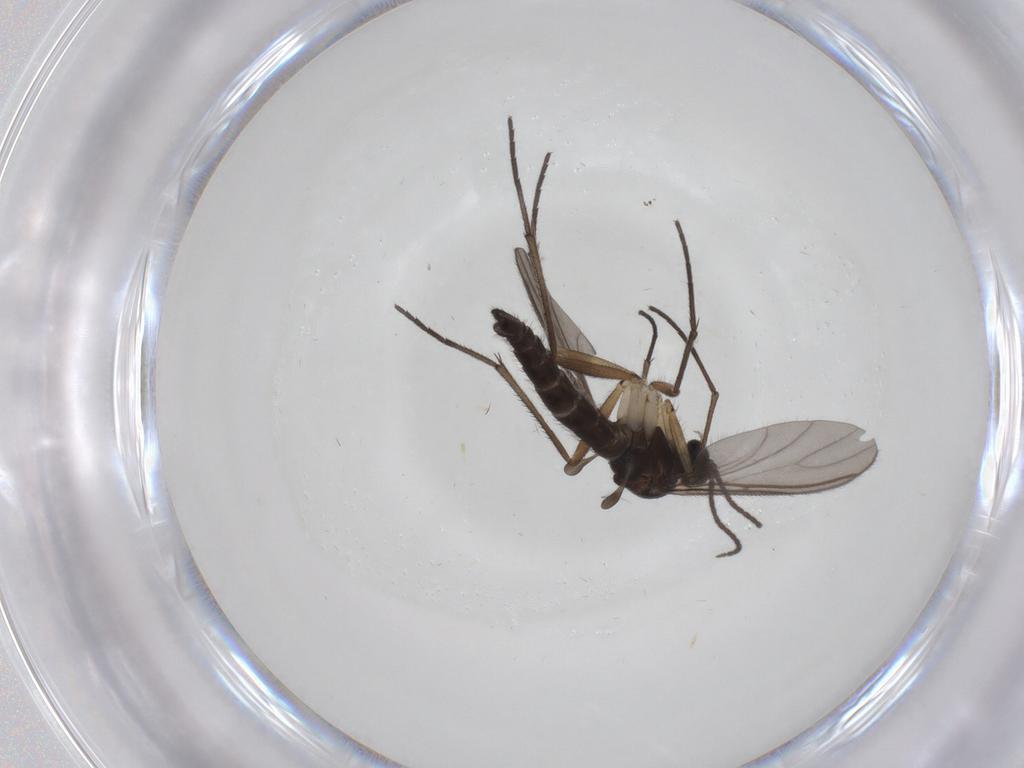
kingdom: Animalia
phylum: Arthropoda
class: Insecta
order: Diptera
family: Sciaridae
